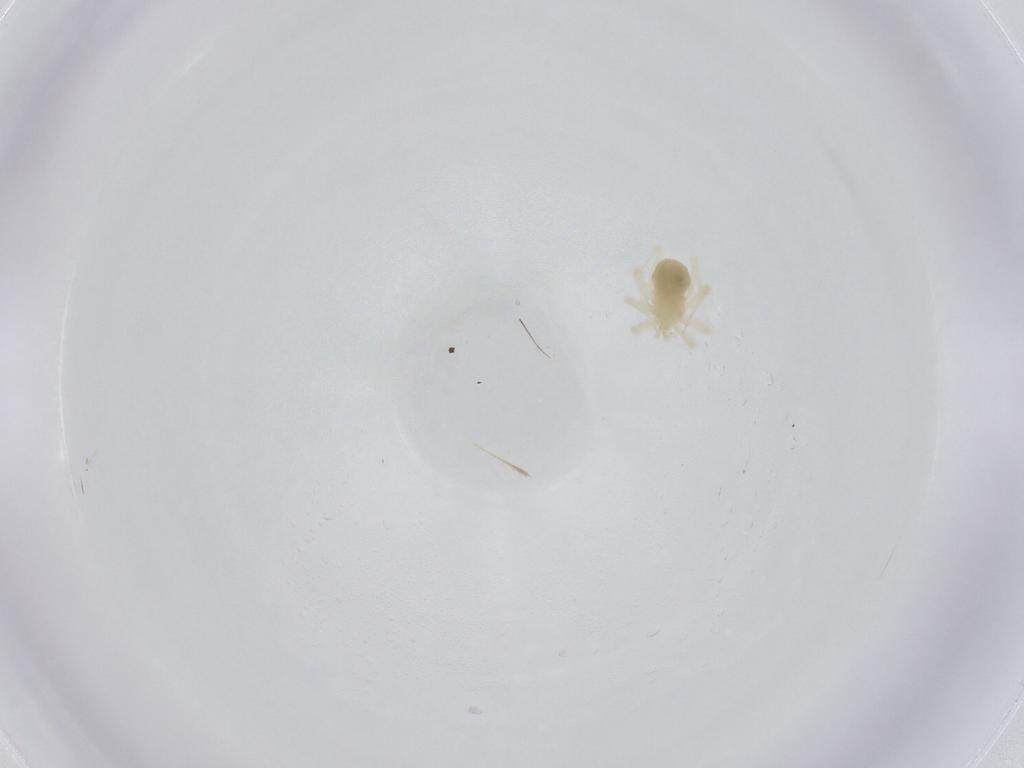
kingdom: Animalia
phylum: Arthropoda
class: Arachnida
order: Trombidiformes
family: Anystidae
